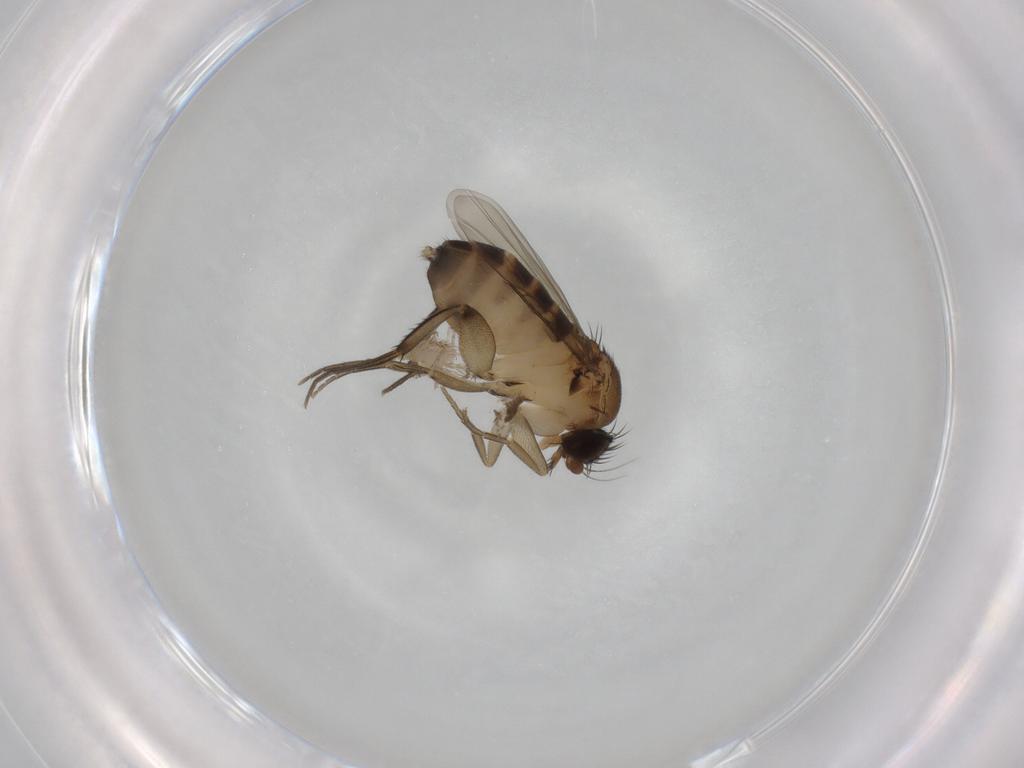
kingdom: Animalia
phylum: Arthropoda
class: Insecta
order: Diptera
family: Phoridae
